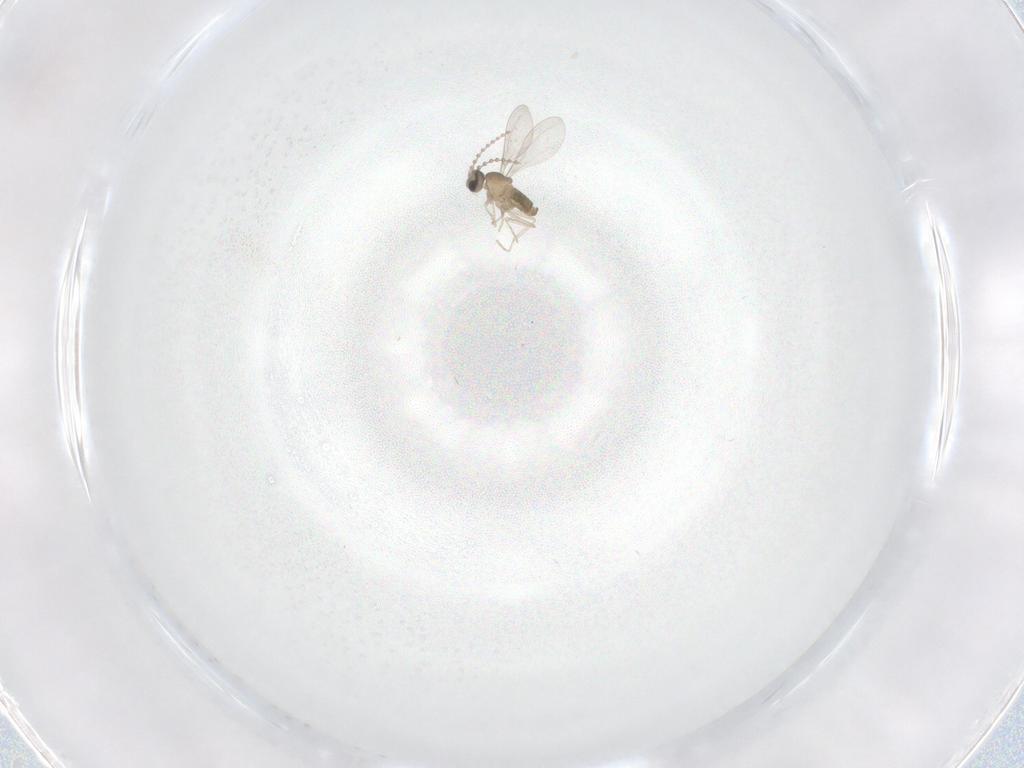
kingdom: Animalia
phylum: Arthropoda
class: Insecta
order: Diptera
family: Cecidomyiidae
